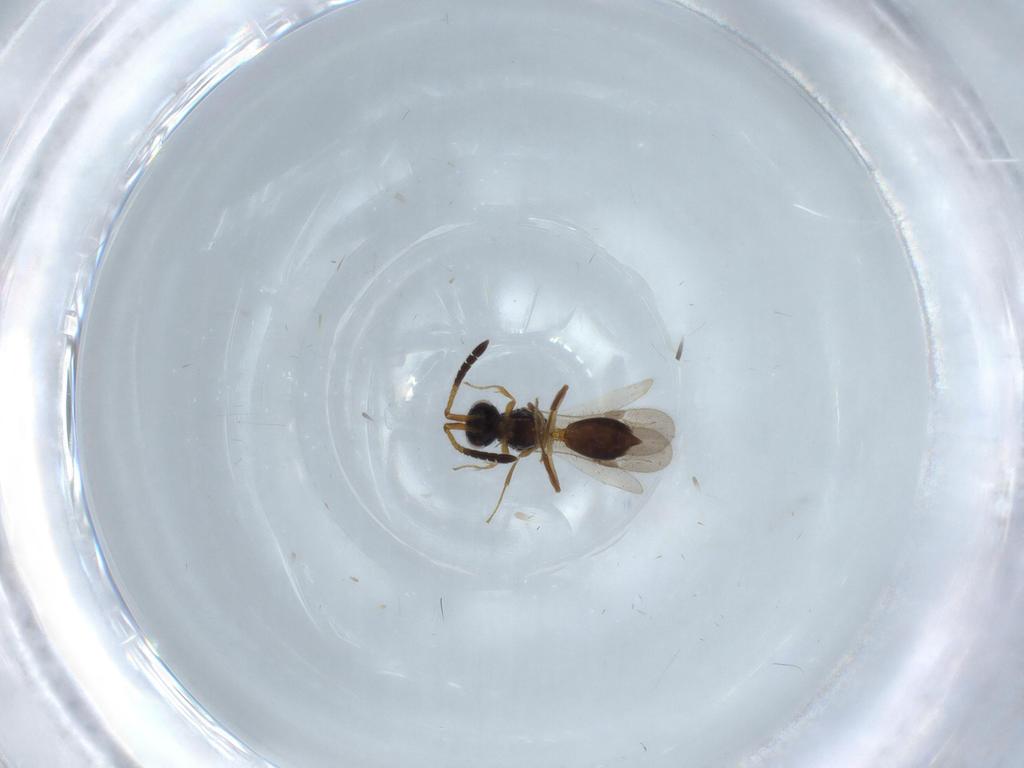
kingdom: Animalia
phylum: Arthropoda
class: Insecta
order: Hymenoptera
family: Megaspilidae
